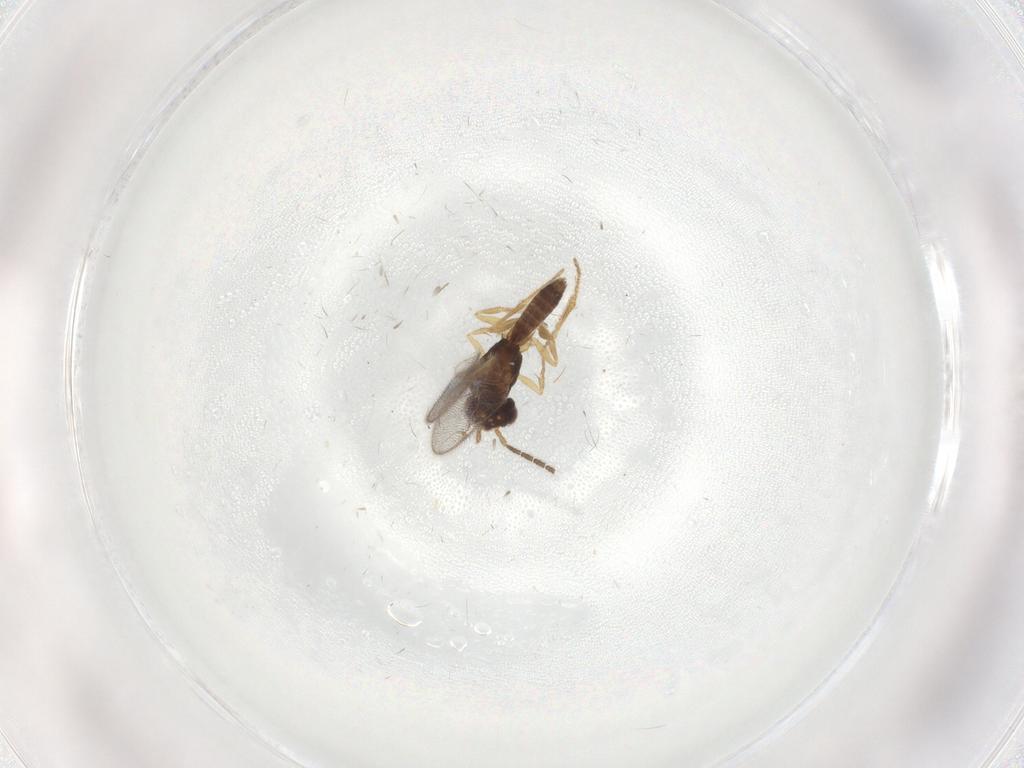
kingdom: Animalia
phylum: Arthropoda
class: Insecta
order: Hymenoptera
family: Dryinidae
